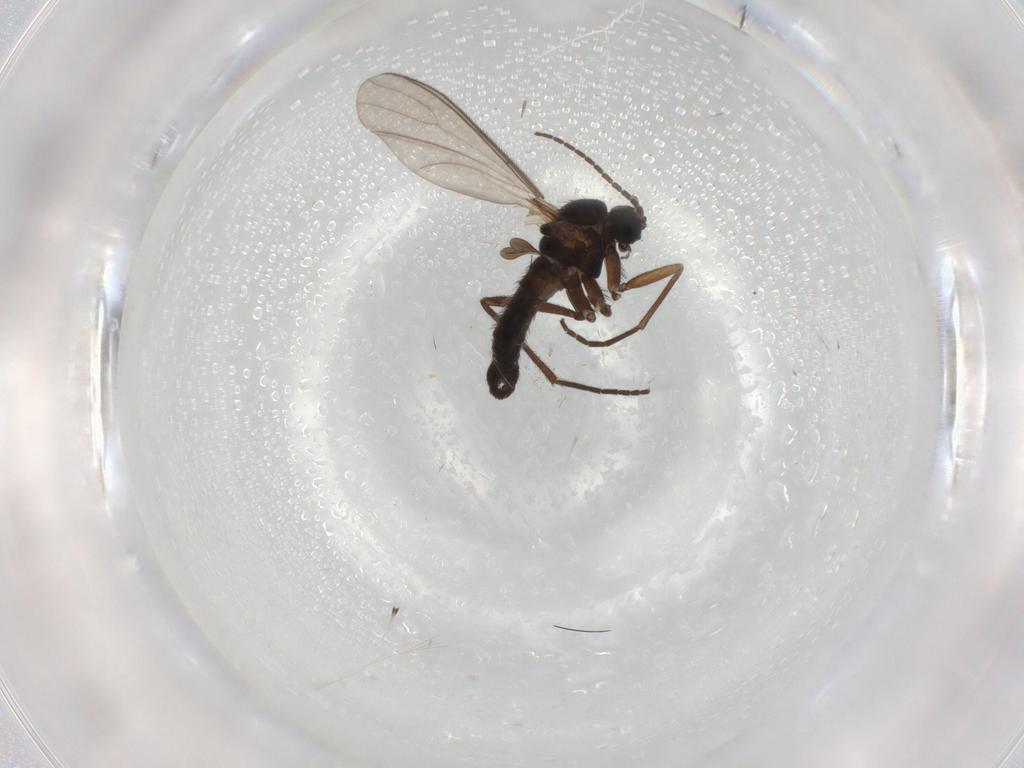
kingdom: Animalia
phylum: Arthropoda
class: Insecta
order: Diptera
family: Sciaridae
